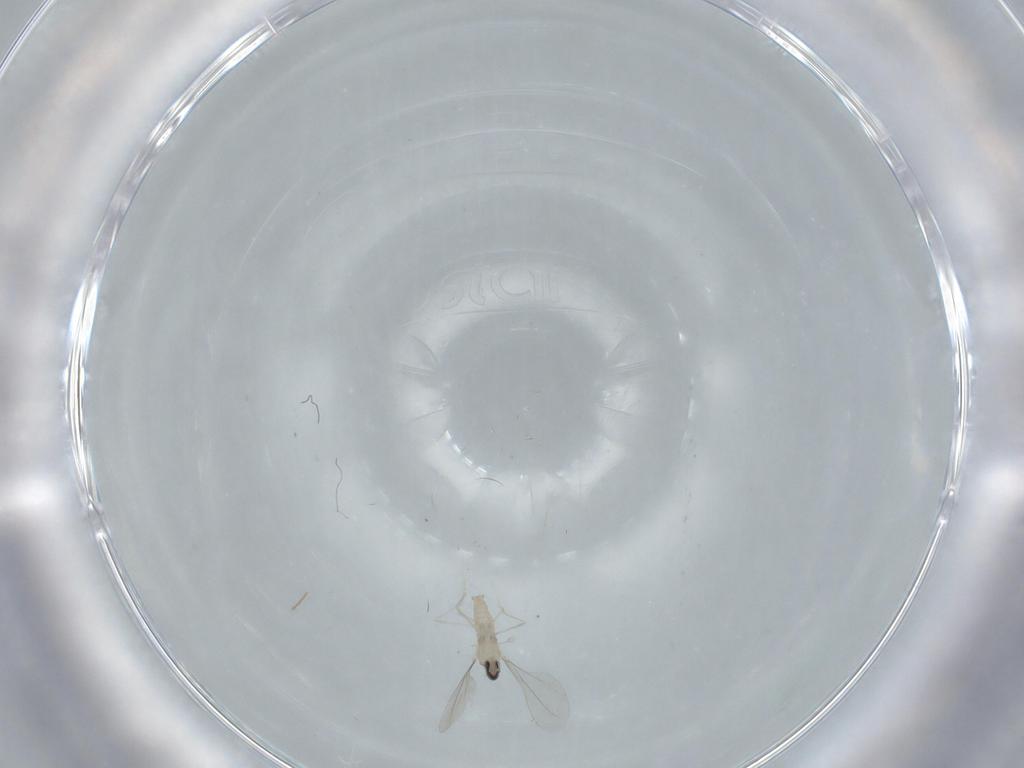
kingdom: Animalia
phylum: Arthropoda
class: Insecta
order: Diptera
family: Cecidomyiidae
